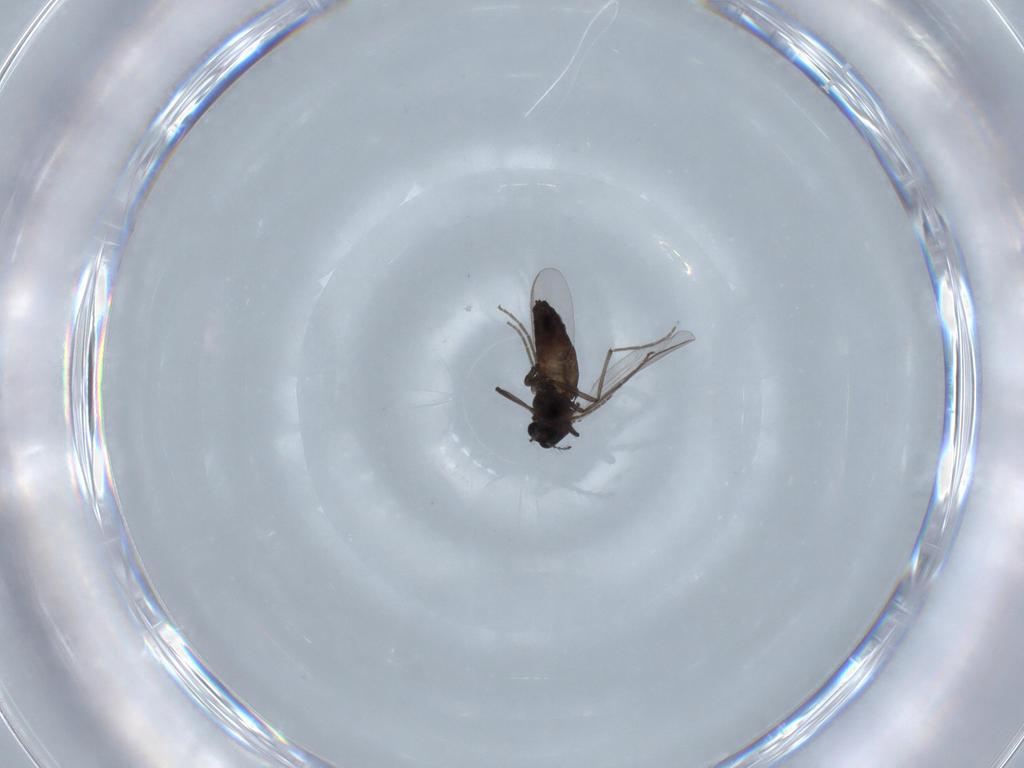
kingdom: Animalia
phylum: Arthropoda
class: Insecta
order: Diptera
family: Chironomidae
